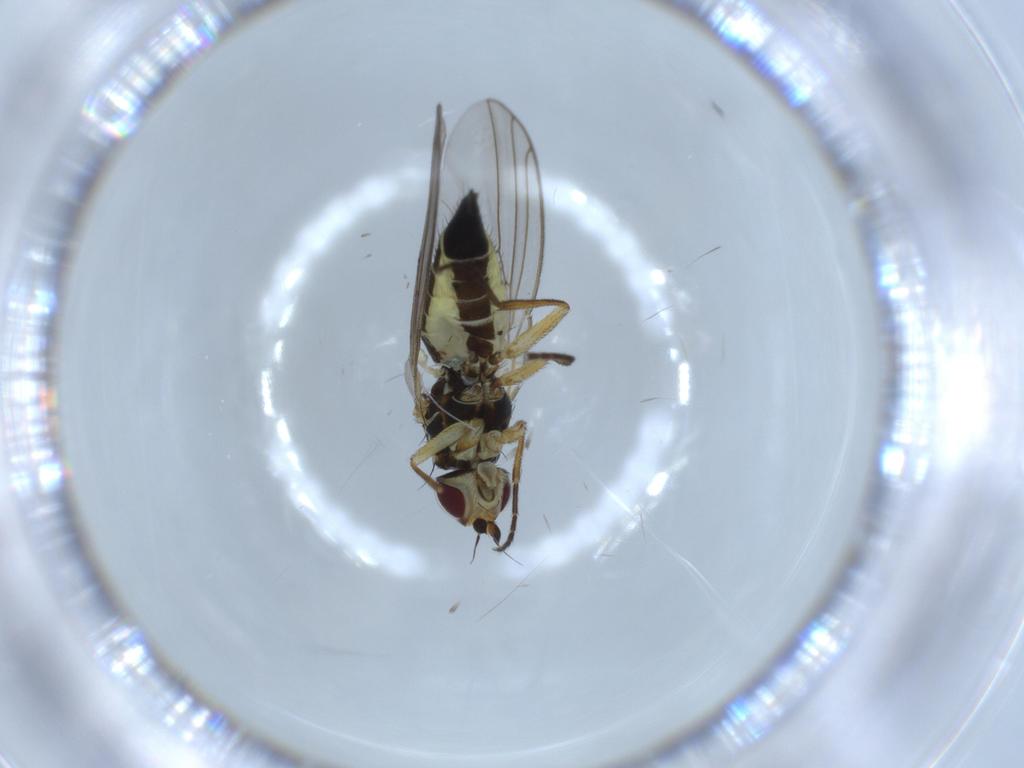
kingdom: Animalia
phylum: Arthropoda
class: Insecta
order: Diptera
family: Agromyzidae
